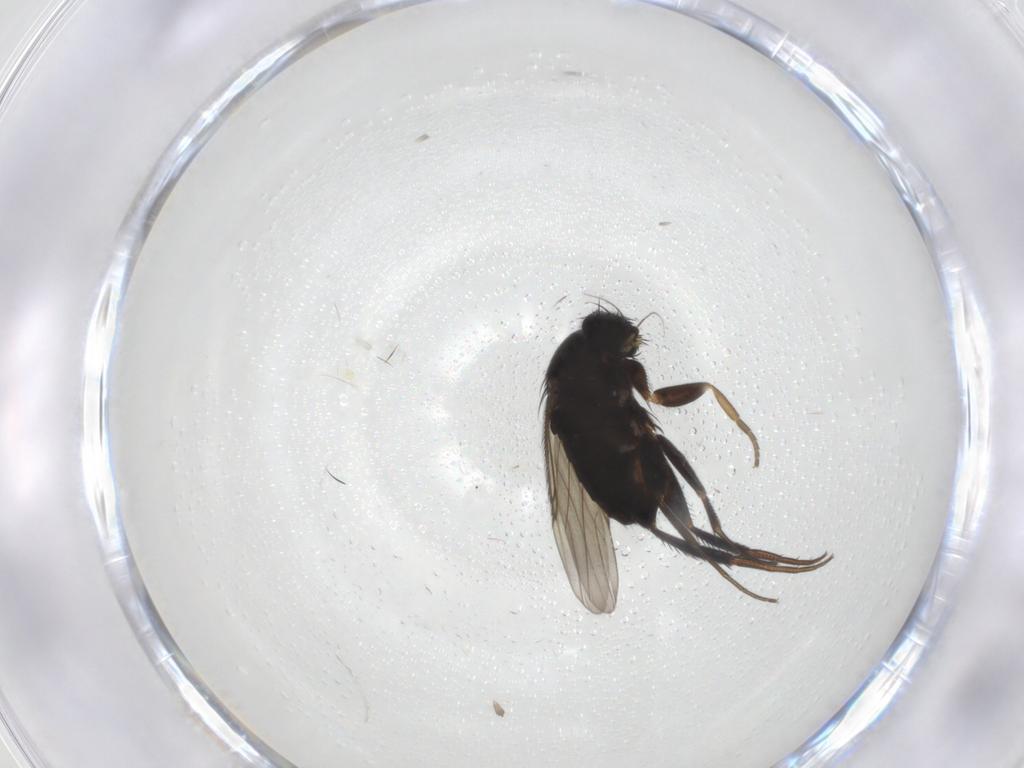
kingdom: Animalia
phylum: Arthropoda
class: Insecta
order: Diptera
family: Phoridae
